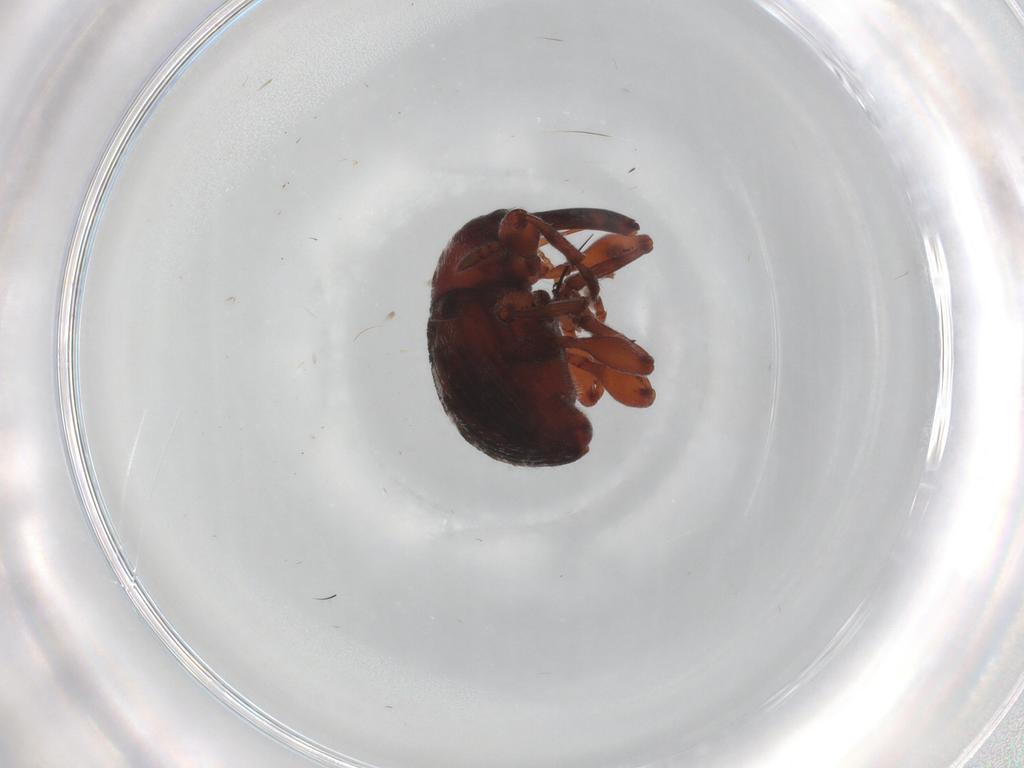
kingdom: Animalia
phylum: Arthropoda
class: Insecta
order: Coleoptera
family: Brentidae
